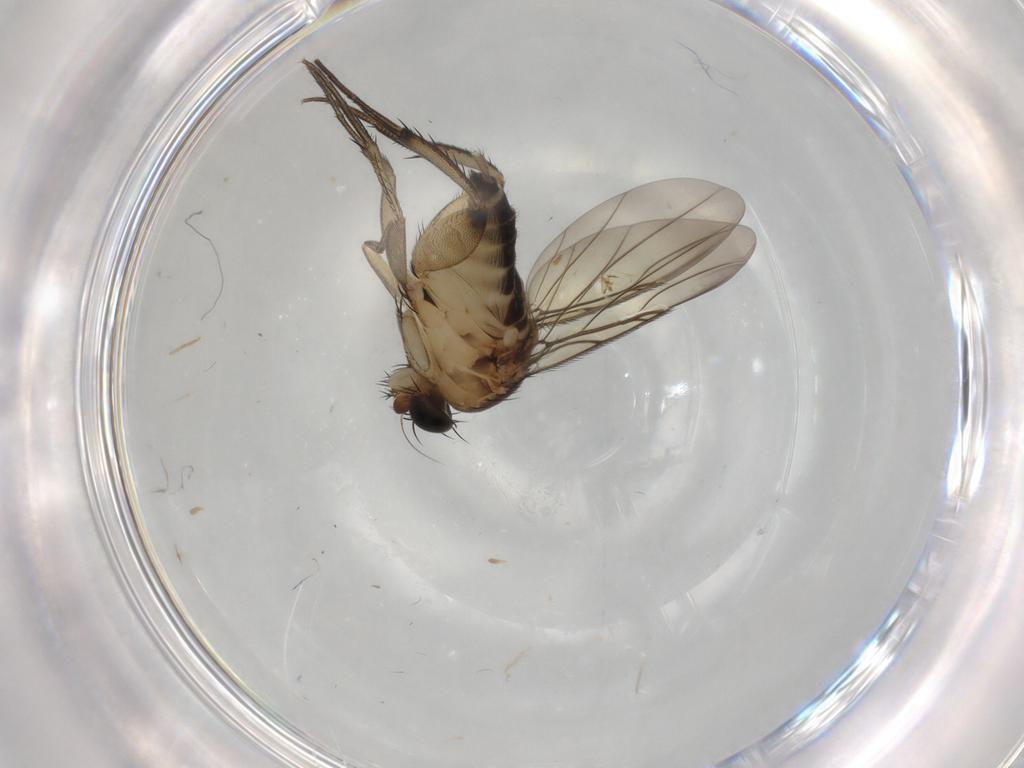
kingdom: Animalia
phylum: Arthropoda
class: Insecta
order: Diptera
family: Phoridae
